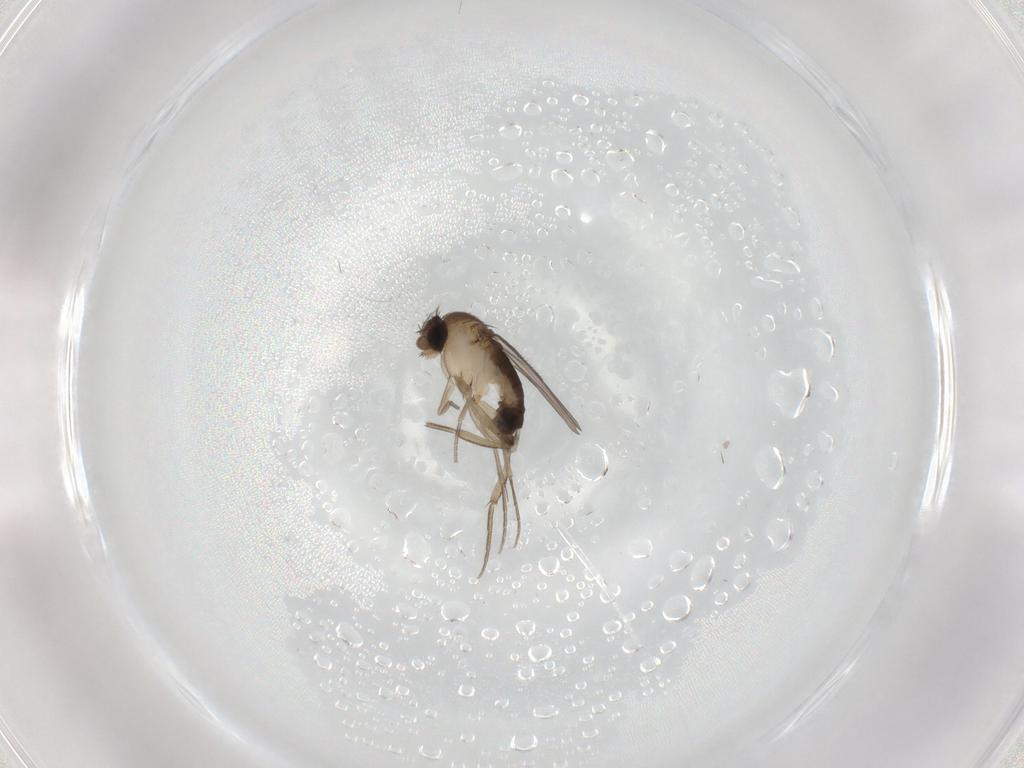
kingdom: Animalia
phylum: Arthropoda
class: Insecta
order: Diptera
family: Phoridae
